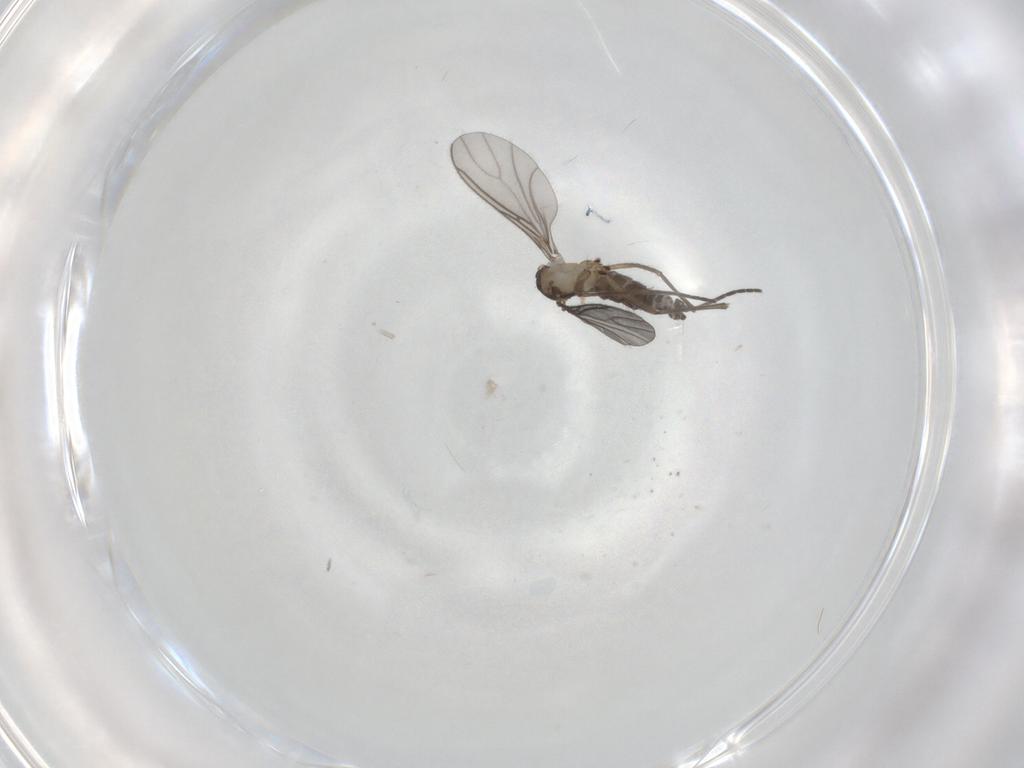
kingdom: Animalia
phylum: Arthropoda
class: Insecta
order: Diptera
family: Sciaridae
